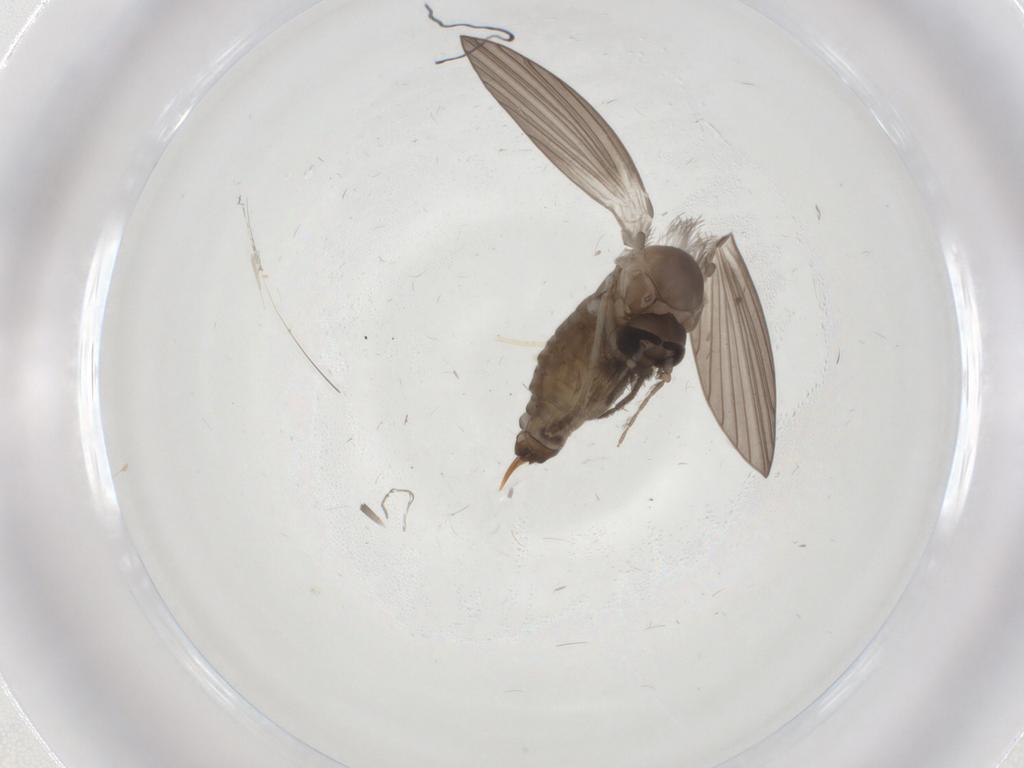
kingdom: Animalia
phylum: Arthropoda
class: Insecta
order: Diptera
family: Psychodidae
